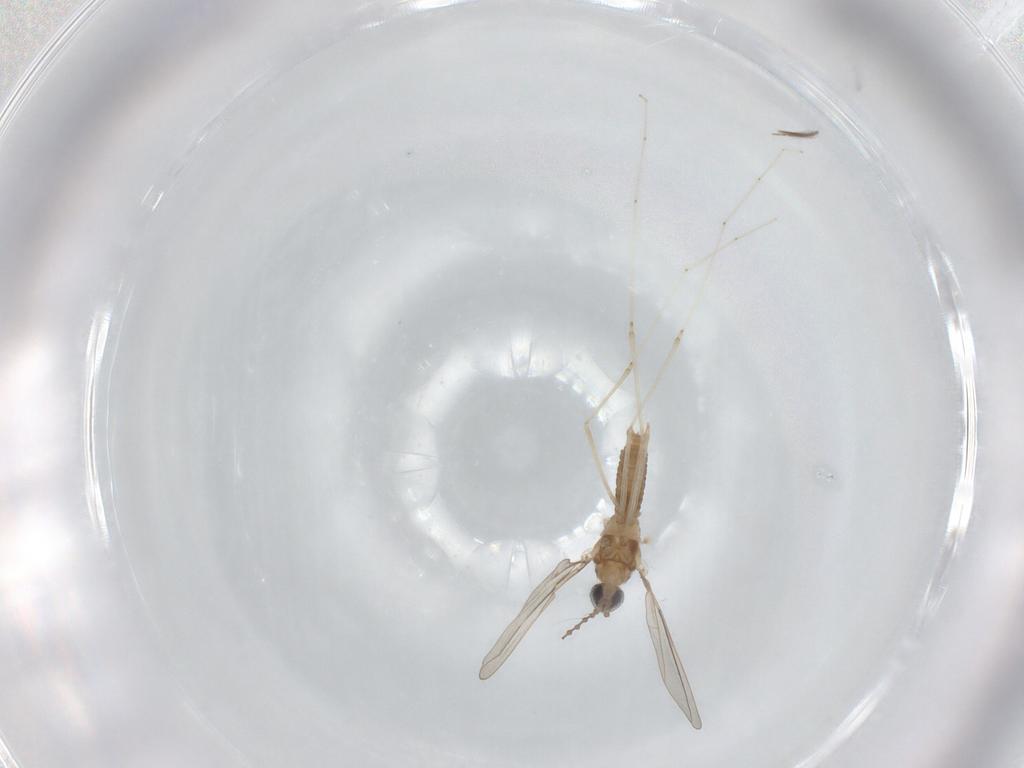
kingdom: Animalia
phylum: Arthropoda
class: Insecta
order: Diptera
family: Cecidomyiidae
